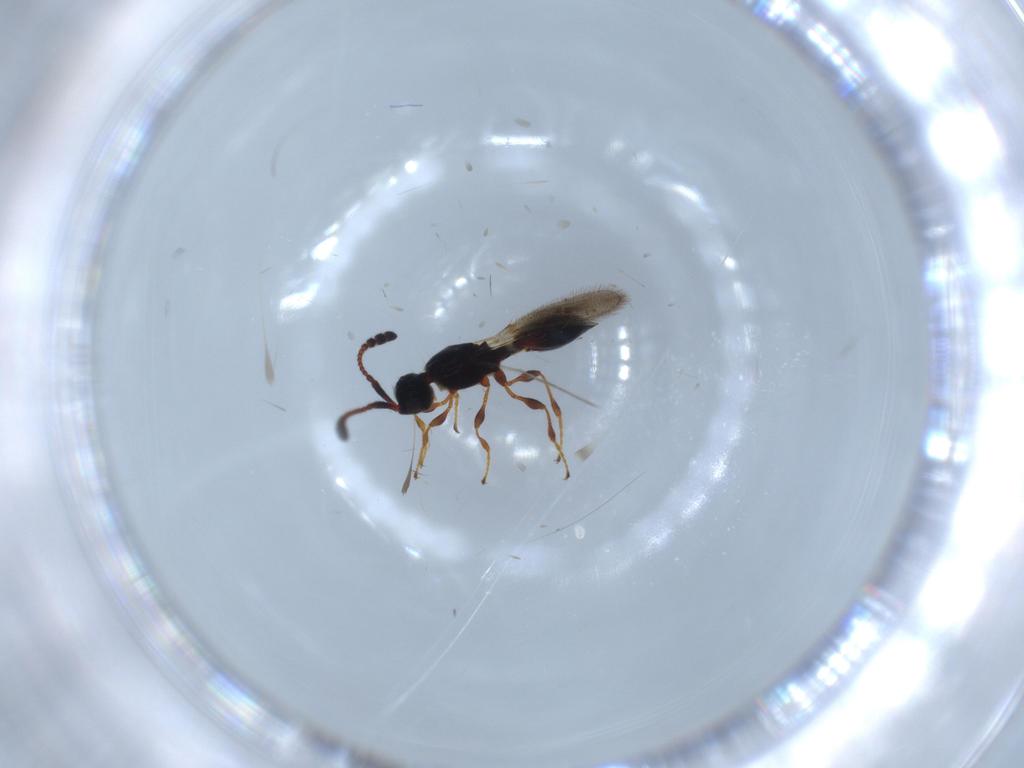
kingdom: Animalia
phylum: Arthropoda
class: Insecta
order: Hymenoptera
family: Diapriidae
